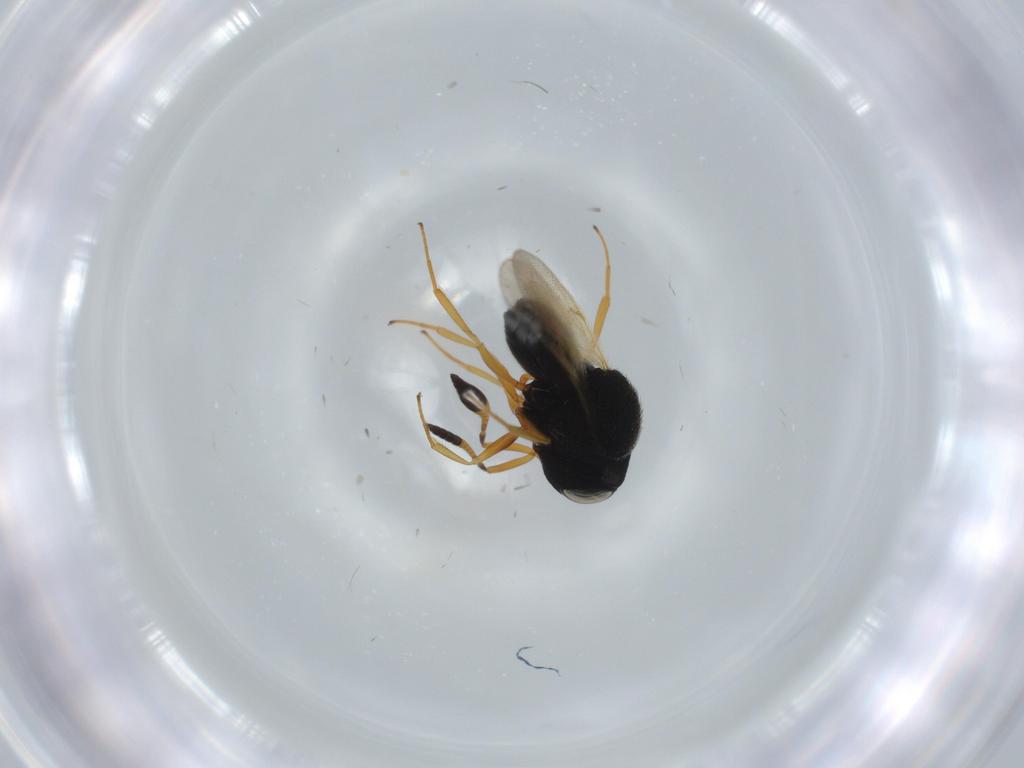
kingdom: Animalia
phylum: Arthropoda
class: Insecta
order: Hymenoptera
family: Scelionidae
